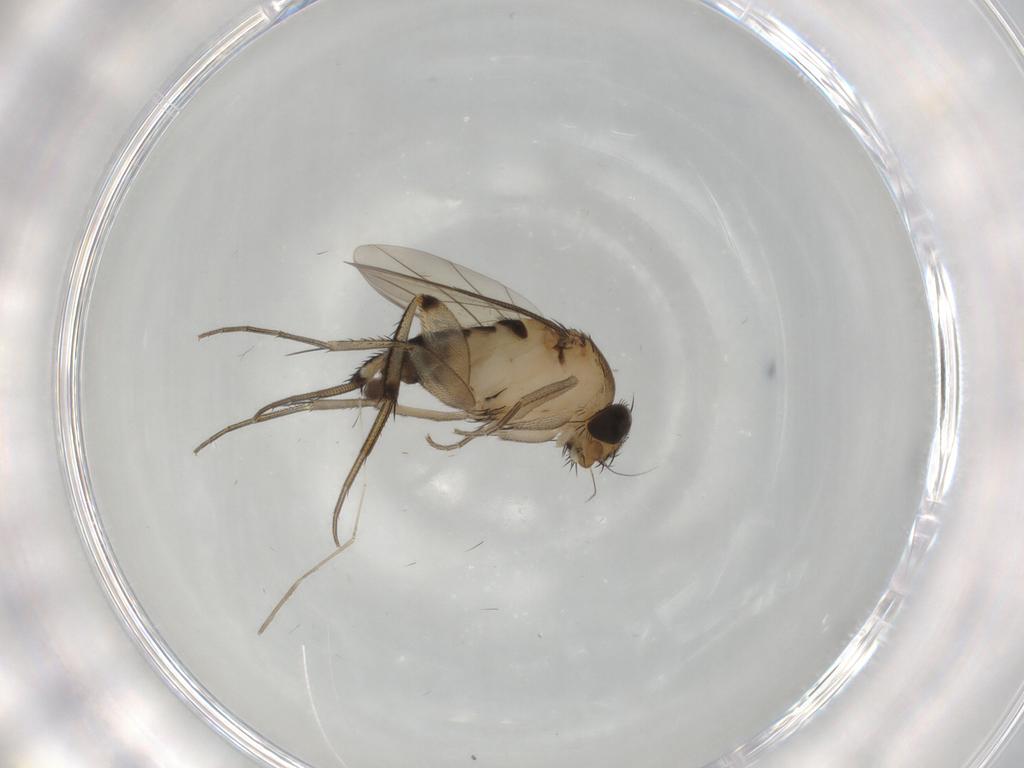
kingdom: Animalia
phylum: Arthropoda
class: Insecta
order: Diptera
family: Phoridae
